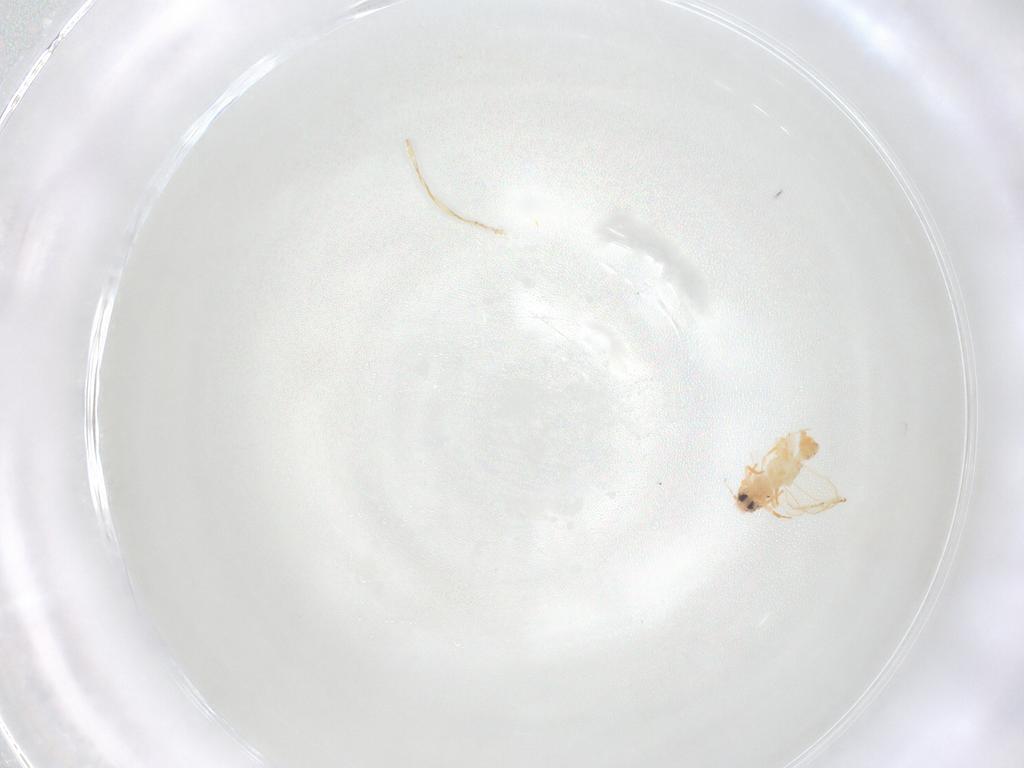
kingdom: Animalia
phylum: Arthropoda
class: Insecta
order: Hemiptera
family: Aleyrodidae
